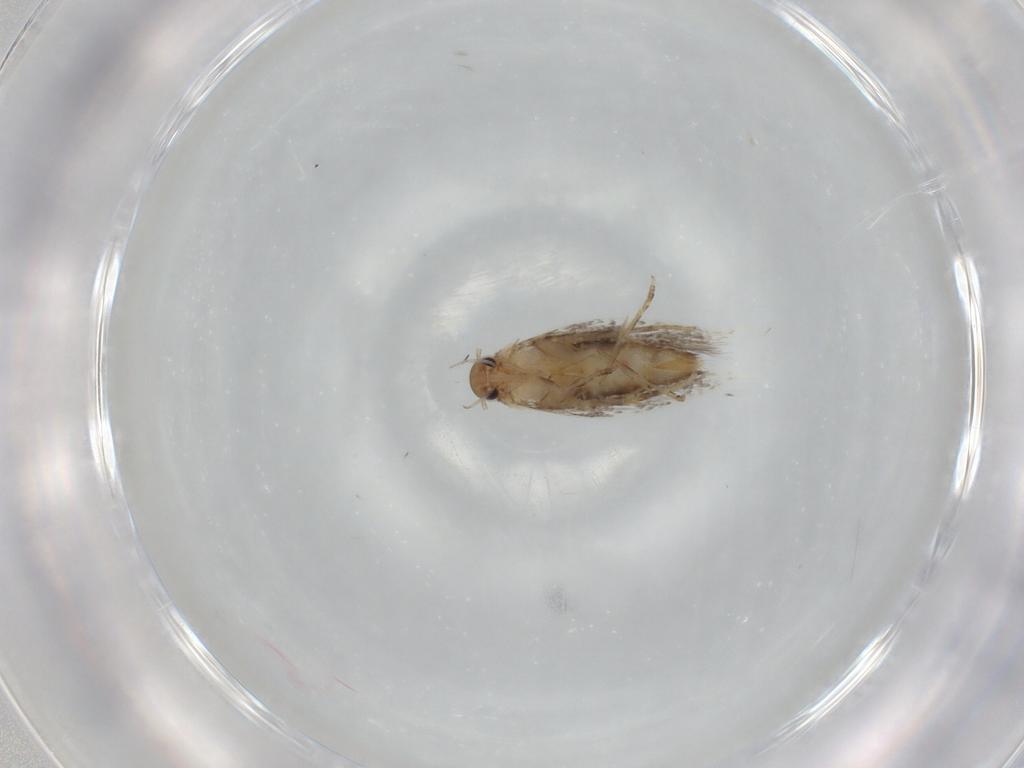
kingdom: Animalia
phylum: Arthropoda
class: Insecta
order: Lepidoptera
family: Elachistidae
